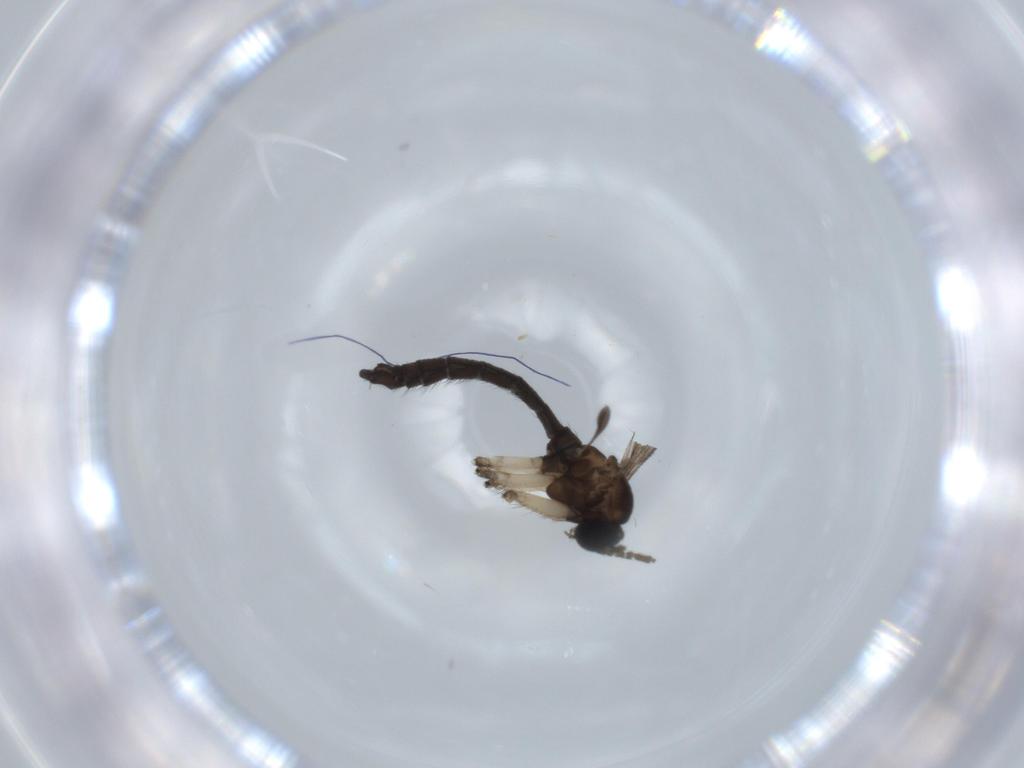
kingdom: Animalia
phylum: Arthropoda
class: Insecta
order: Diptera
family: Sciaridae
